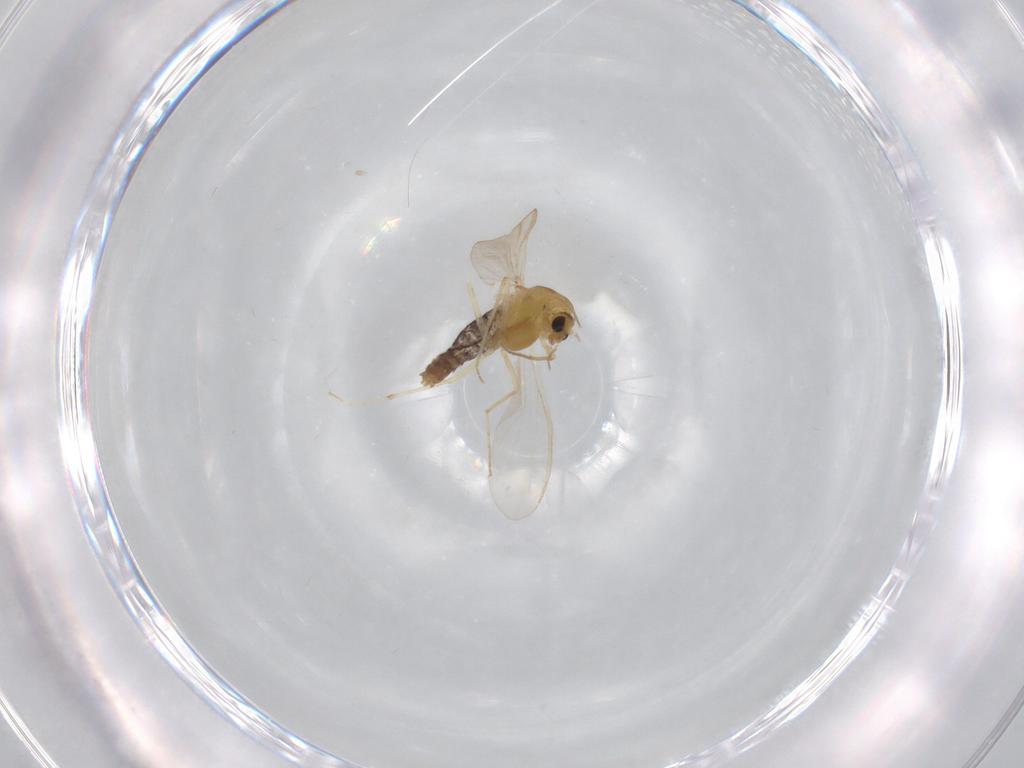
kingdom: Animalia
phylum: Arthropoda
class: Insecta
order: Diptera
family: Chironomidae
